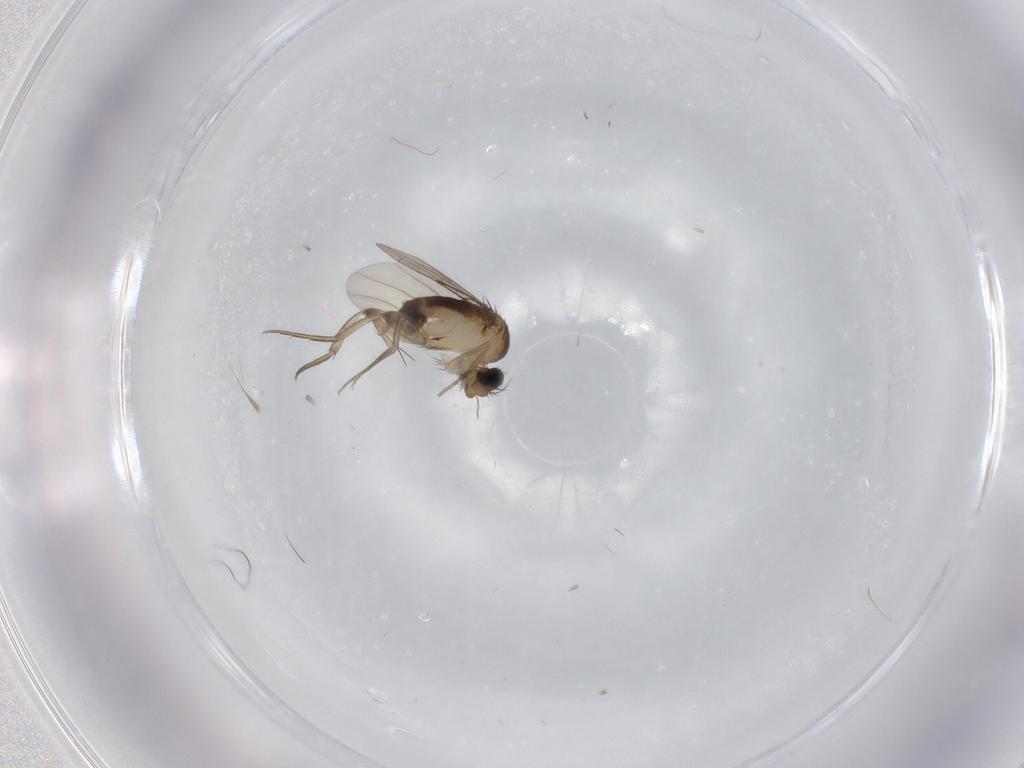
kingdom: Animalia
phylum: Arthropoda
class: Insecta
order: Diptera
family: Phoridae
